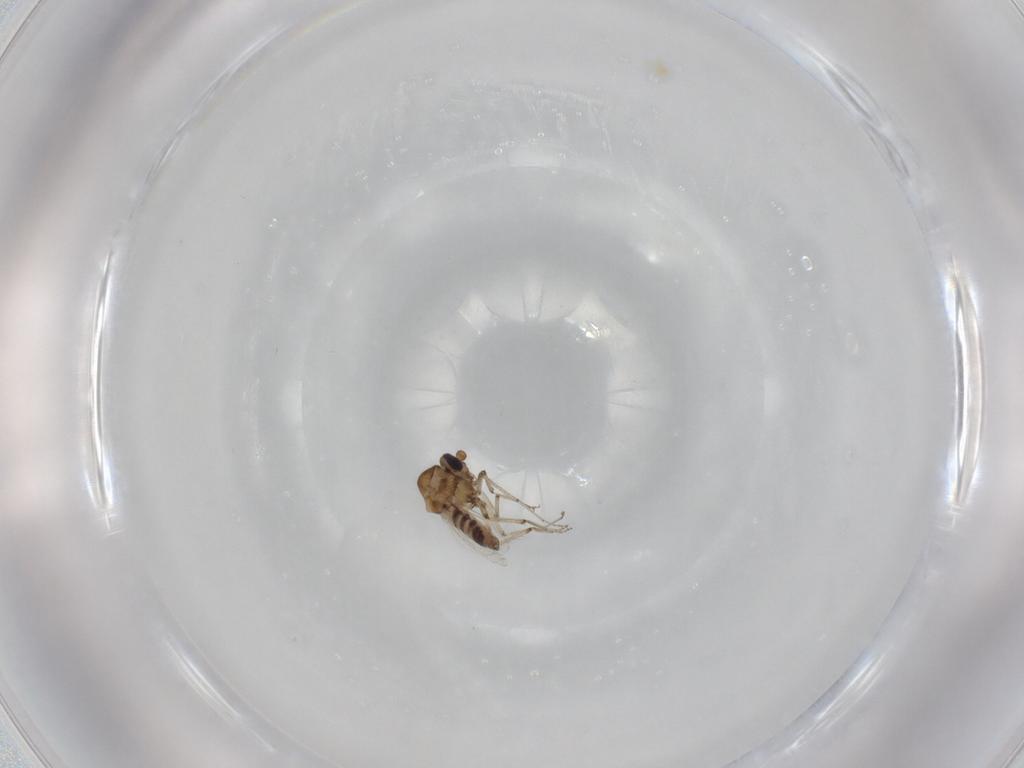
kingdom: Animalia
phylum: Arthropoda
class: Insecta
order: Diptera
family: Ceratopogonidae
